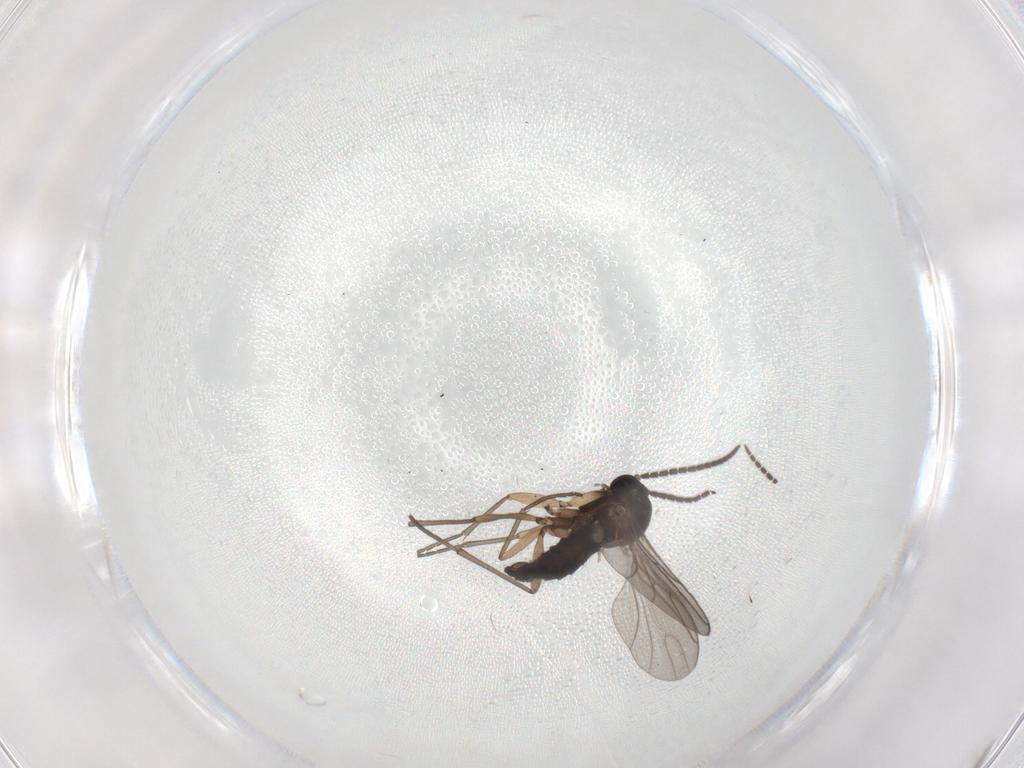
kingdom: Animalia
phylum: Arthropoda
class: Insecta
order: Diptera
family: Sciaridae
